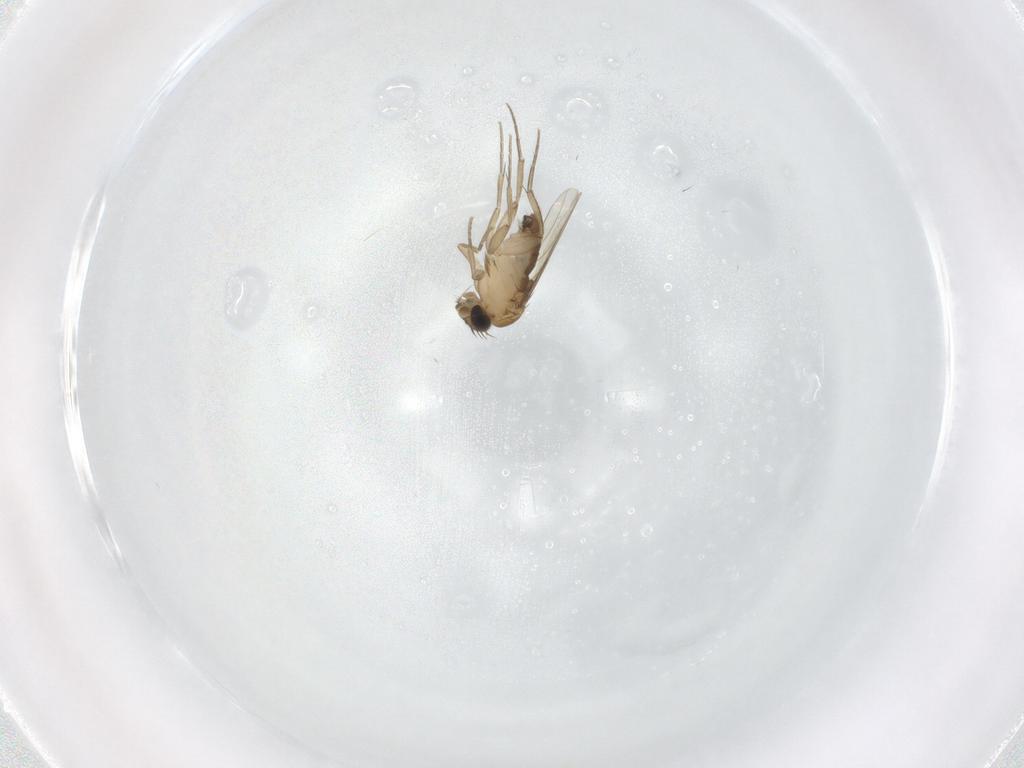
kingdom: Animalia
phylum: Arthropoda
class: Insecta
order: Diptera
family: Phoridae
